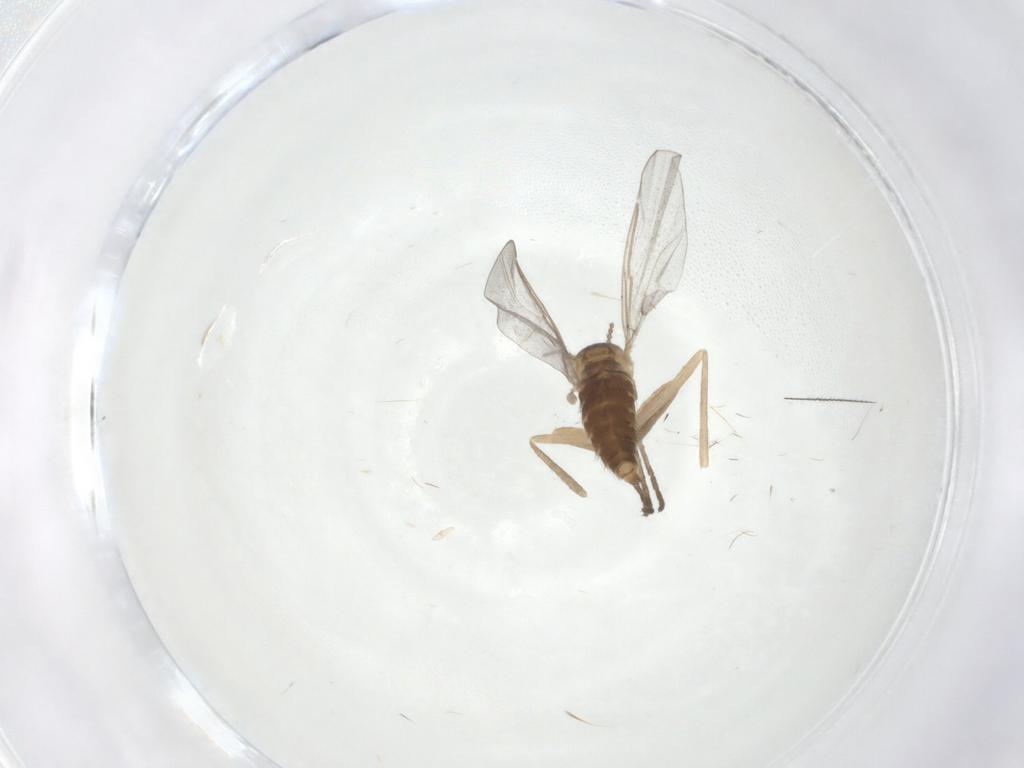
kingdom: Animalia
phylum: Arthropoda
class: Insecta
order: Diptera
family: Cecidomyiidae
